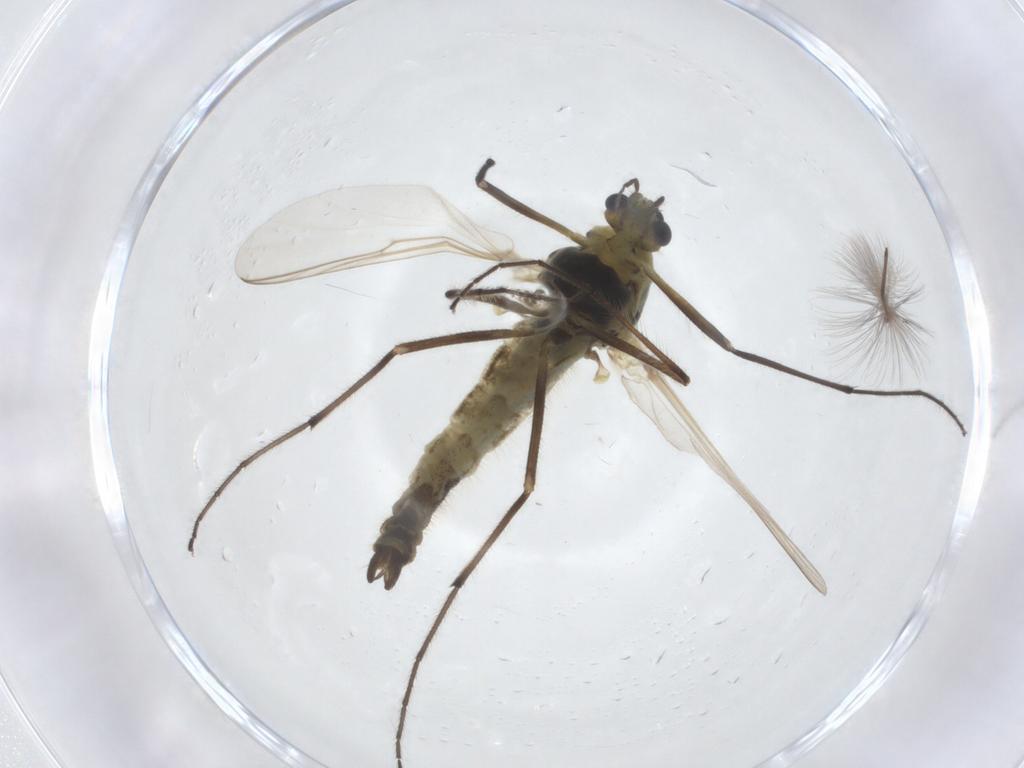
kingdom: Animalia
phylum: Arthropoda
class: Insecta
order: Diptera
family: Chironomidae
